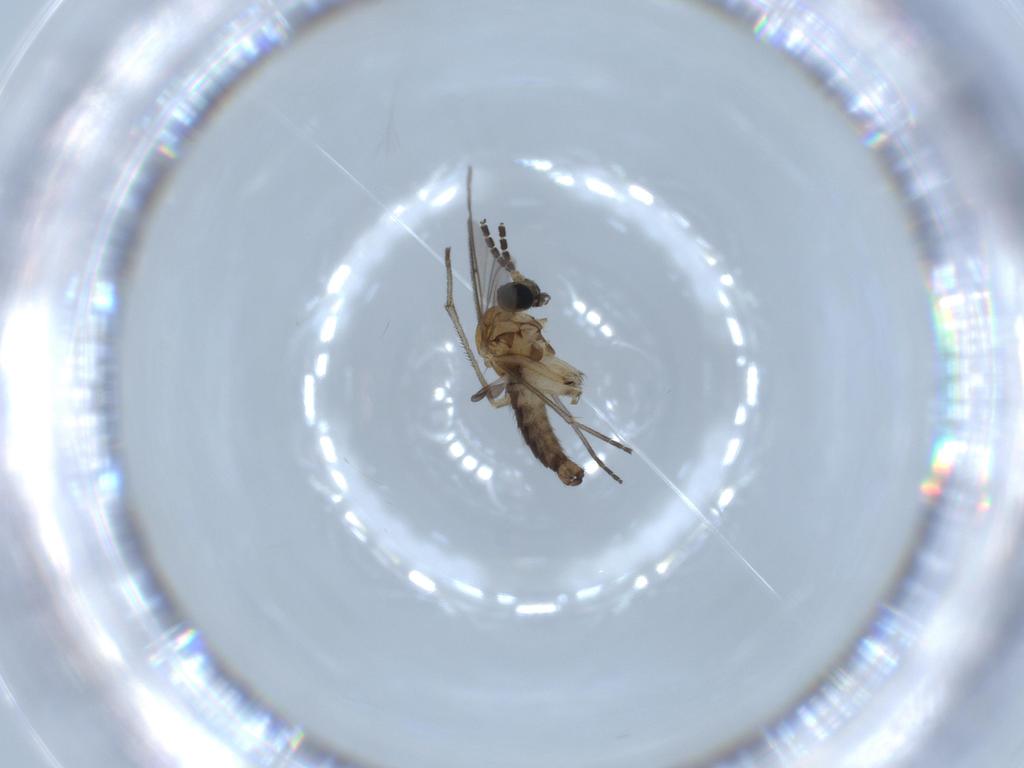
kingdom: Animalia
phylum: Arthropoda
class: Insecta
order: Diptera
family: Sciaridae
